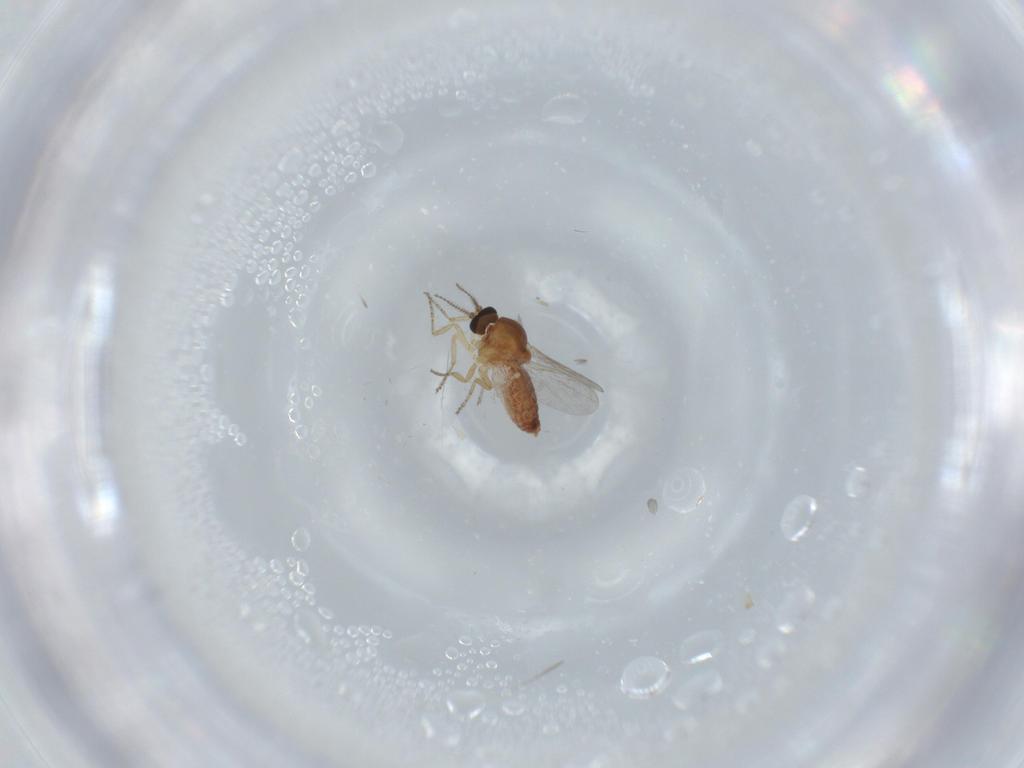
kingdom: Animalia
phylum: Arthropoda
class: Insecta
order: Diptera
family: Ceratopogonidae
